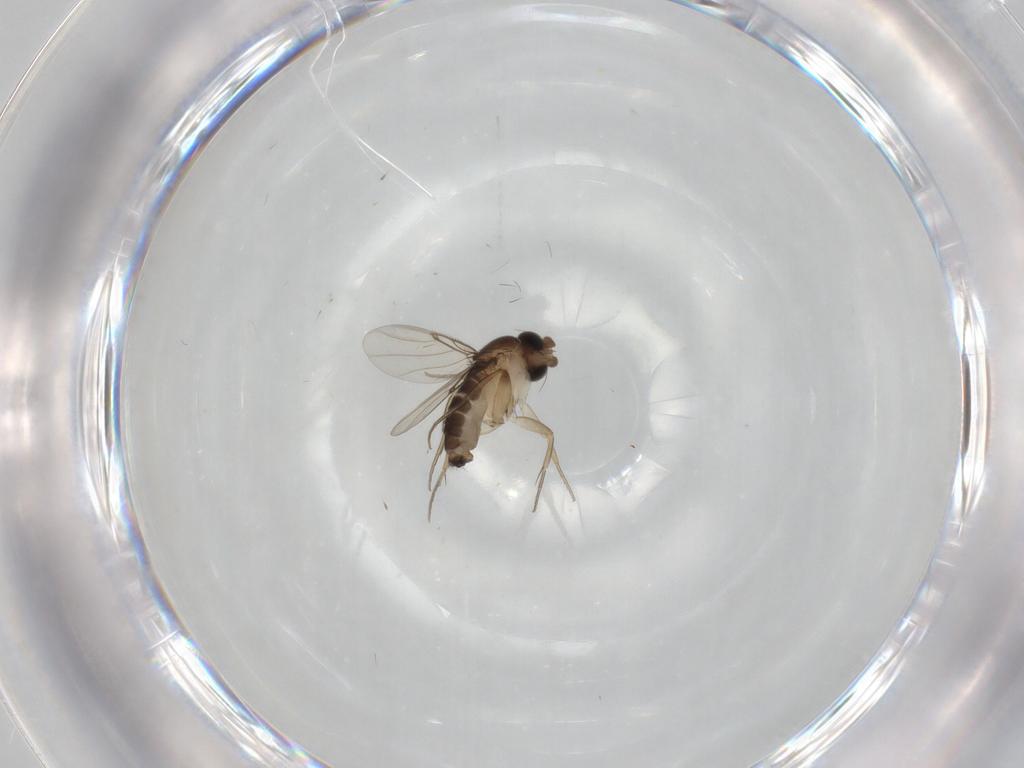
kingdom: Animalia
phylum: Arthropoda
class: Insecta
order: Diptera
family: Phoridae
